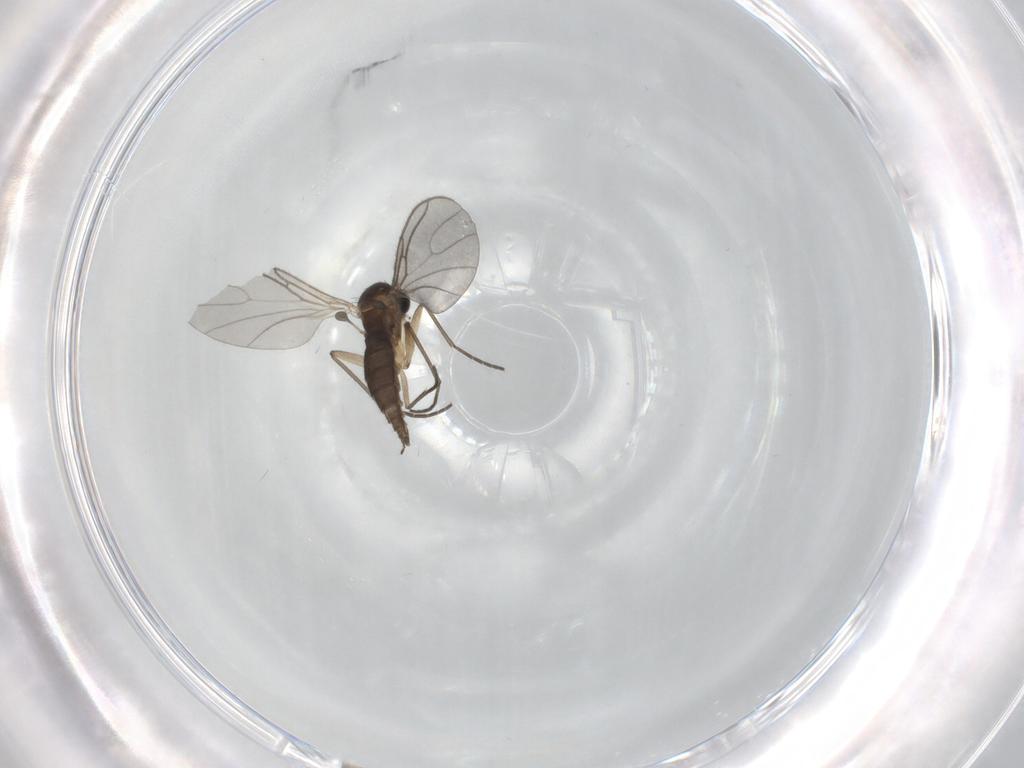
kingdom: Animalia
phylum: Arthropoda
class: Insecta
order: Diptera
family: Sciaridae
